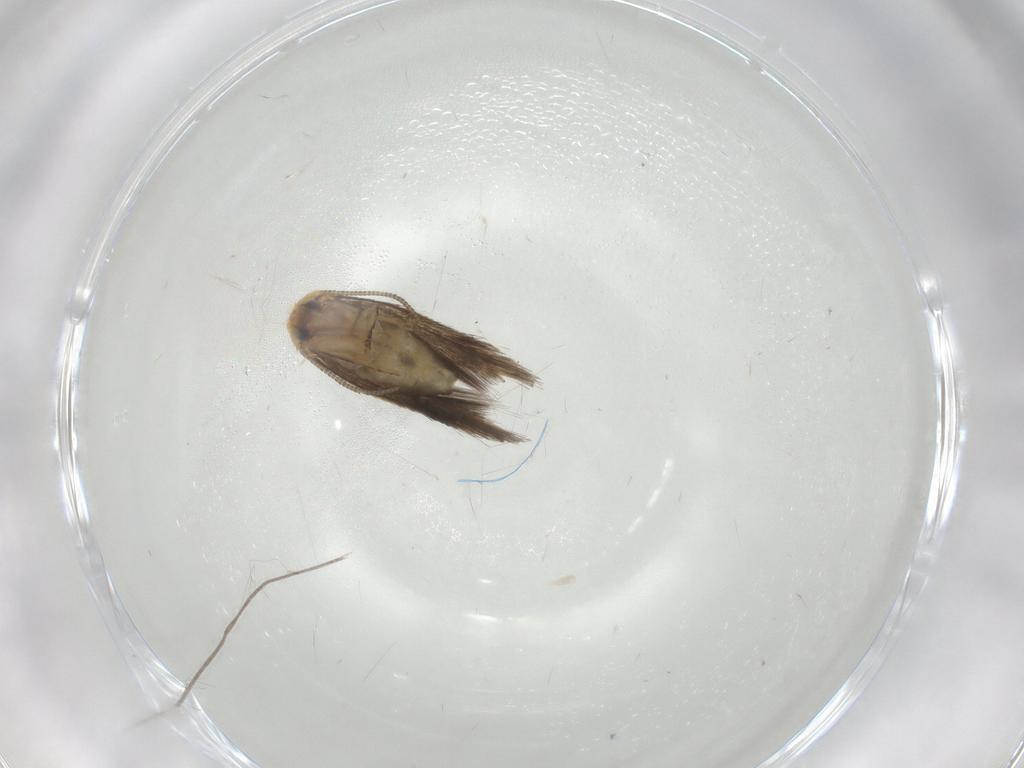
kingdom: Animalia
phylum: Arthropoda
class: Insecta
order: Lepidoptera
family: Nepticulidae
